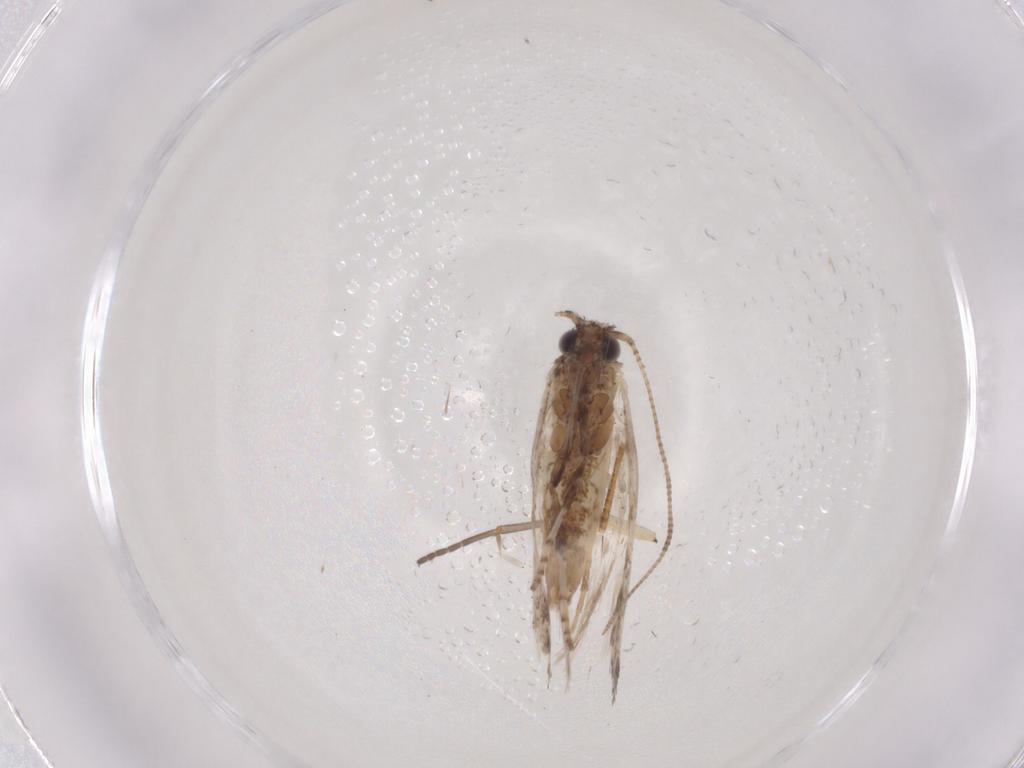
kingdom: Animalia
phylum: Arthropoda
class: Insecta
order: Lepidoptera
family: Gracillariidae
